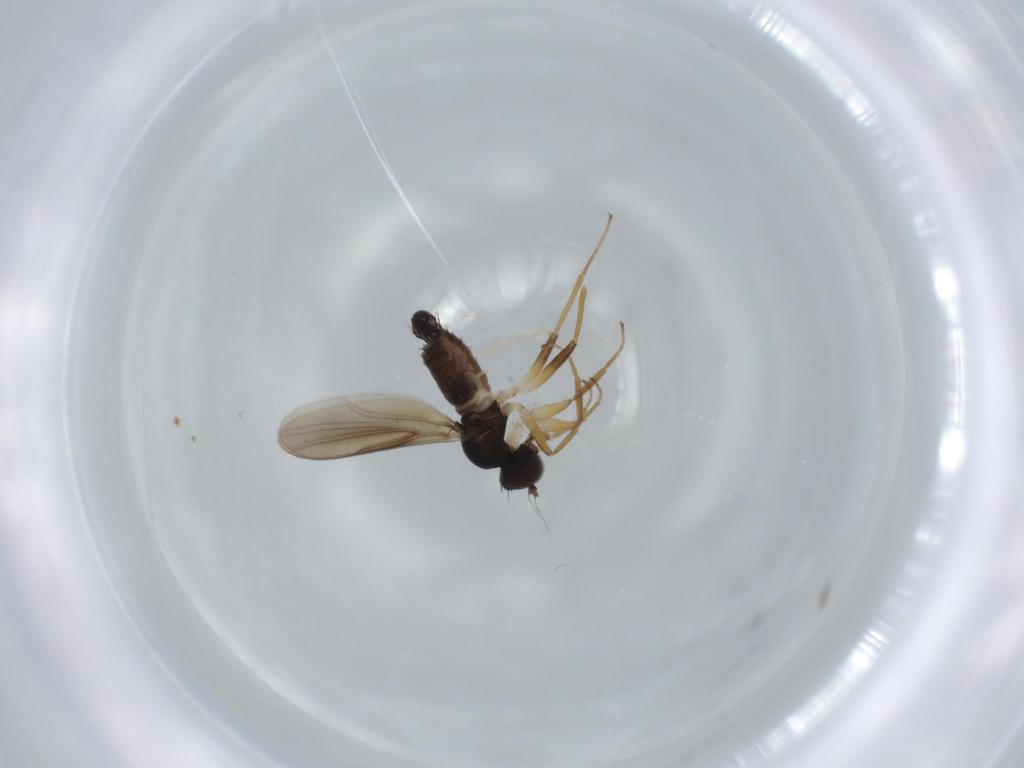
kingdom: Animalia
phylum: Arthropoda
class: Insecta
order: Diptera
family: Hybotidae
